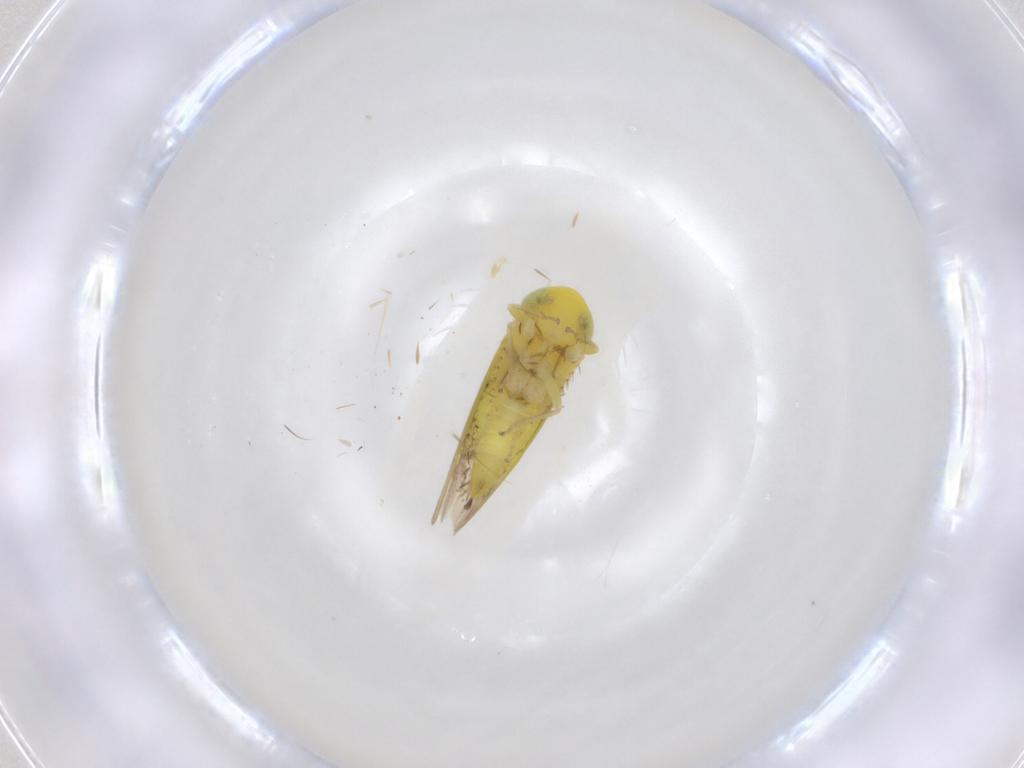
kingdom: Animalia
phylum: Arthropoda
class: Insecta
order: Hemiptera
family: Cicadellidae
